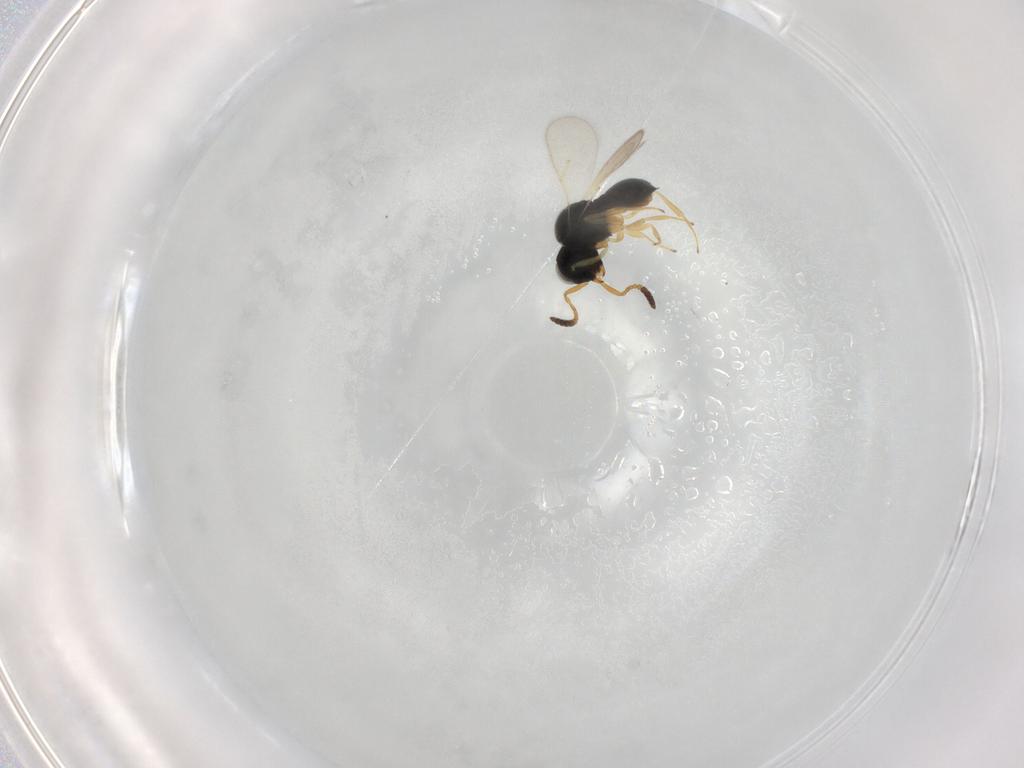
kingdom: Animalia
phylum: Arthropoda
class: Insecta
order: Hymenoptera
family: Scelionidae
